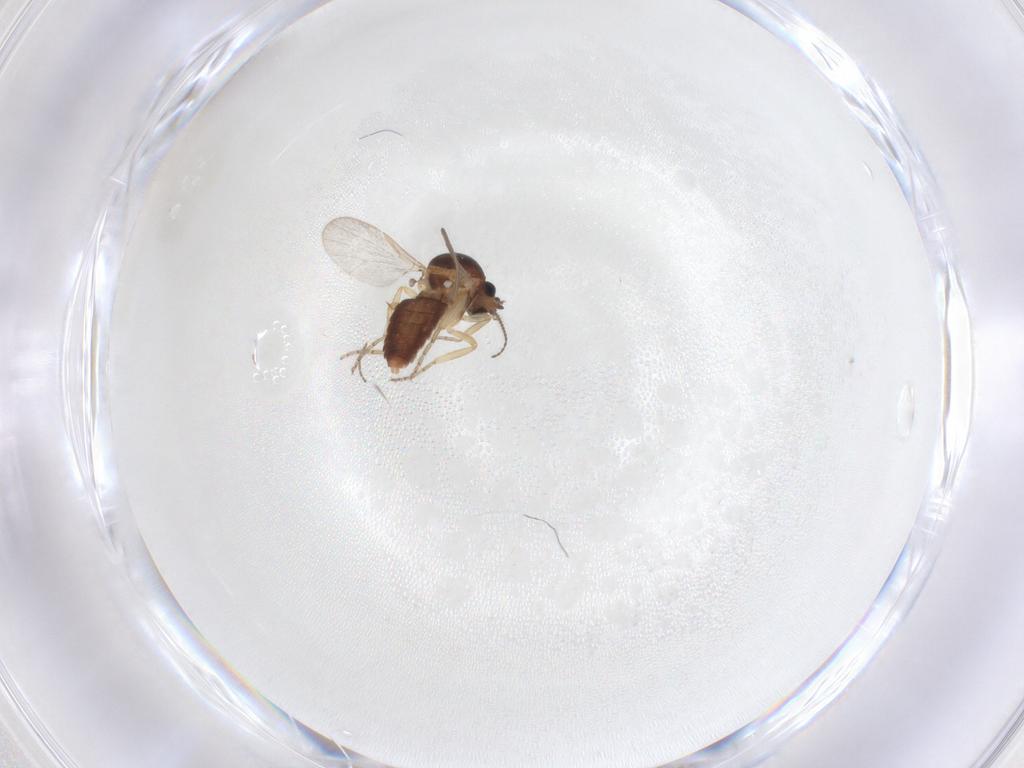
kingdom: Animalia
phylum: Arthropoda
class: Insecta
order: Diptera
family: Ceratopogonidae
